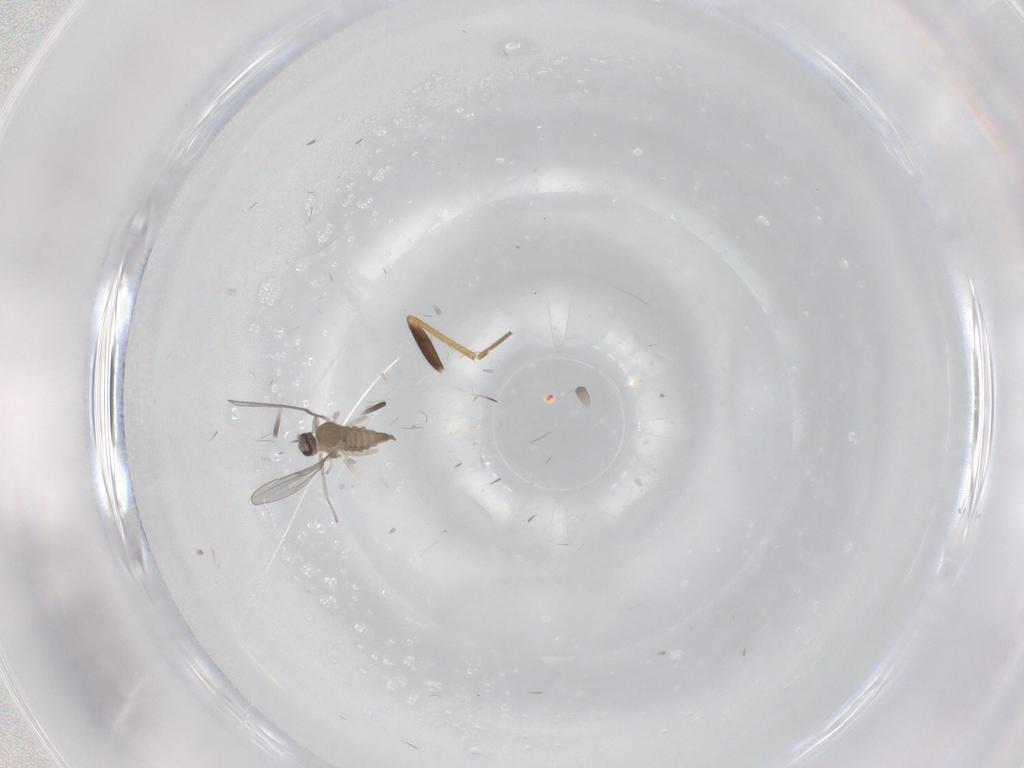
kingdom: Animalia
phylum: Arthropoda
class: Insecta
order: Diptera
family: Cecidomyiidae
